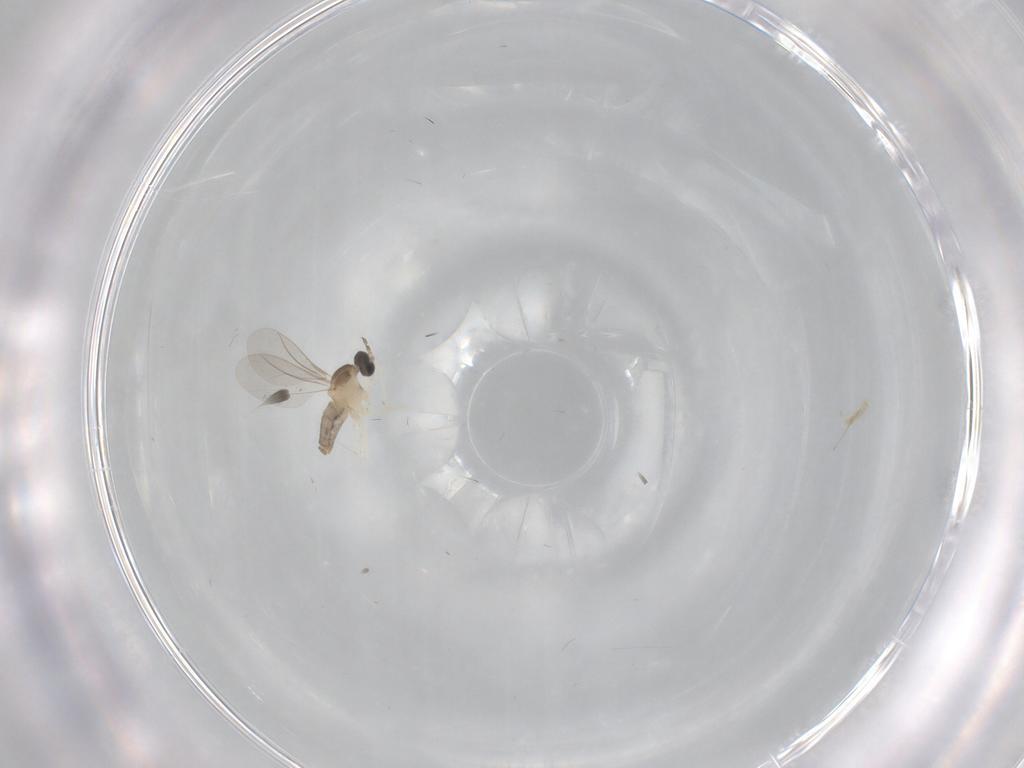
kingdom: Animalia
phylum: Arthropoda
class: Insecta
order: Diptera
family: Cecidomyiidae
